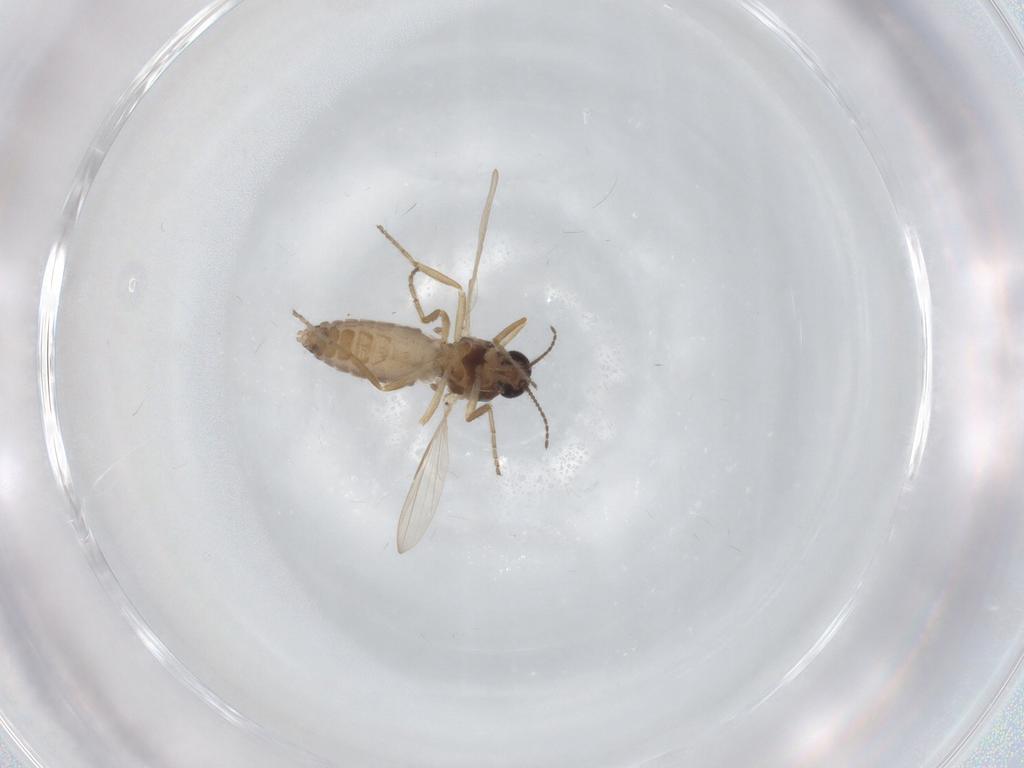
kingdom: Animalia
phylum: Arthropoda
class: Insecta
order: Diptera
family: Ceratopogonidae
